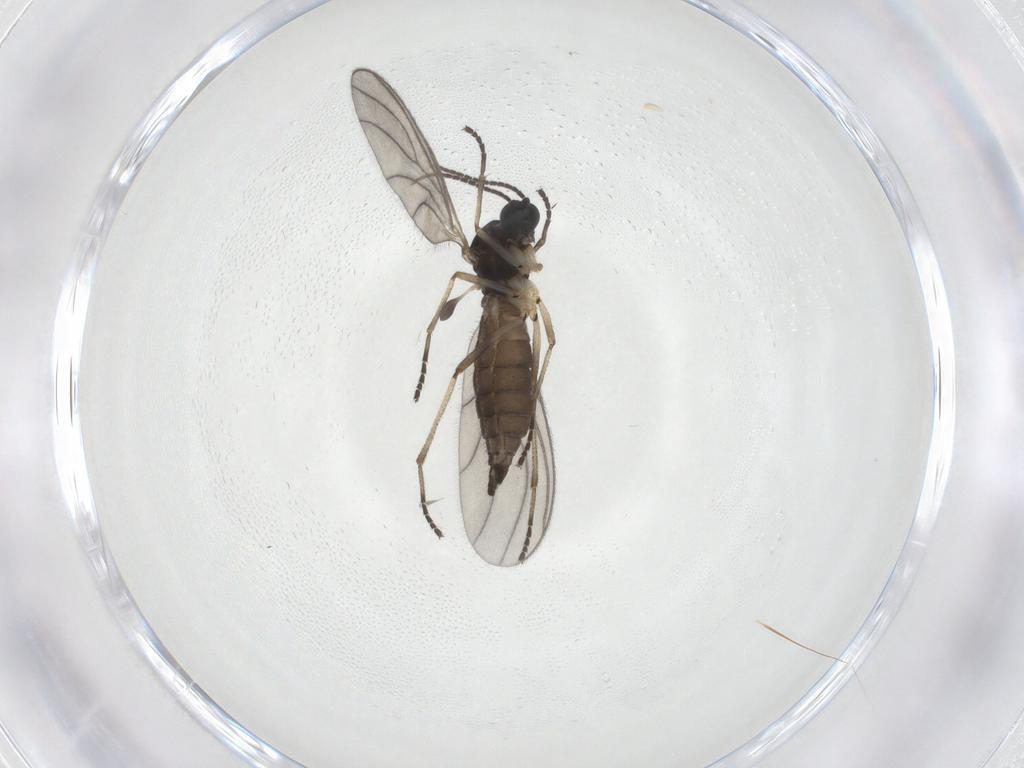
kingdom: Animalia
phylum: Arthropoda
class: Insecta
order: Diptera
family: Sciaridae
